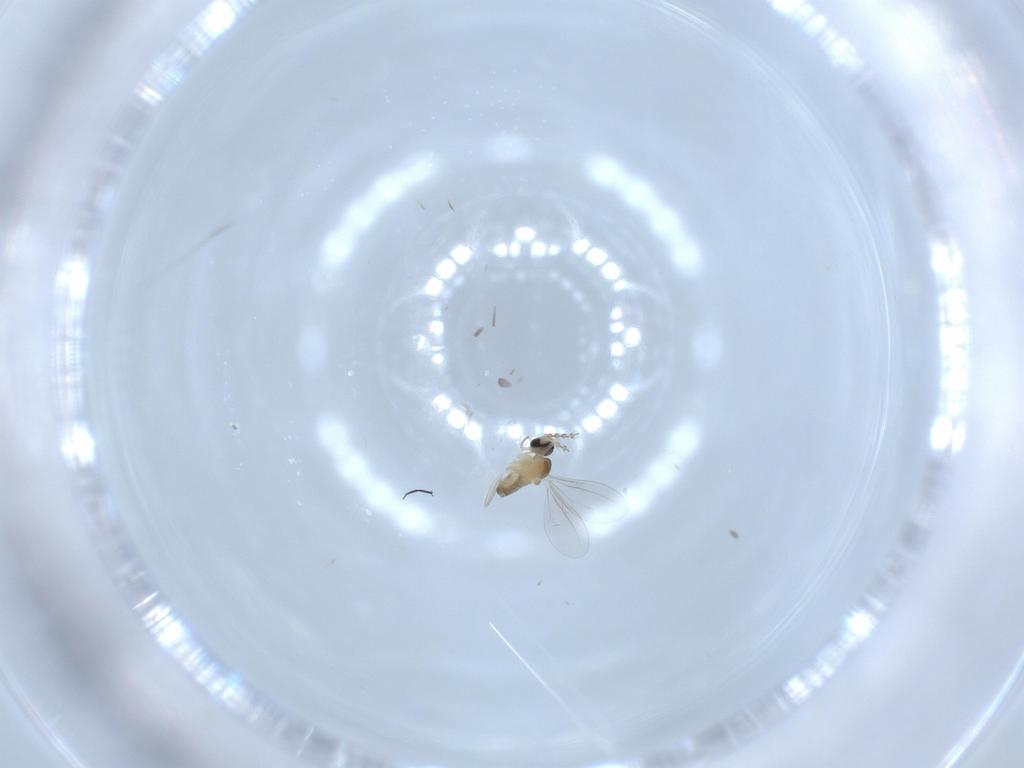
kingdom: Animalia
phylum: Arthropoda
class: Insecta
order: Diptera
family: Cecidomyiidae
